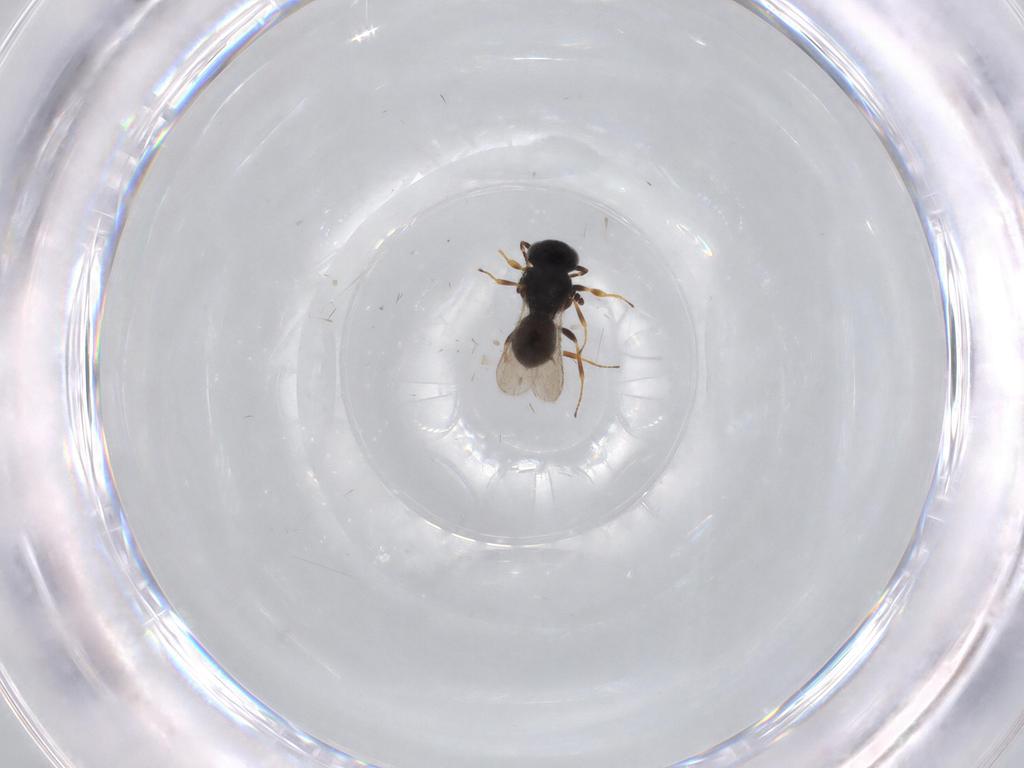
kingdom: Animalia
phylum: Arthropoda
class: Insecta
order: Hymenoptera
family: Scelionidae
